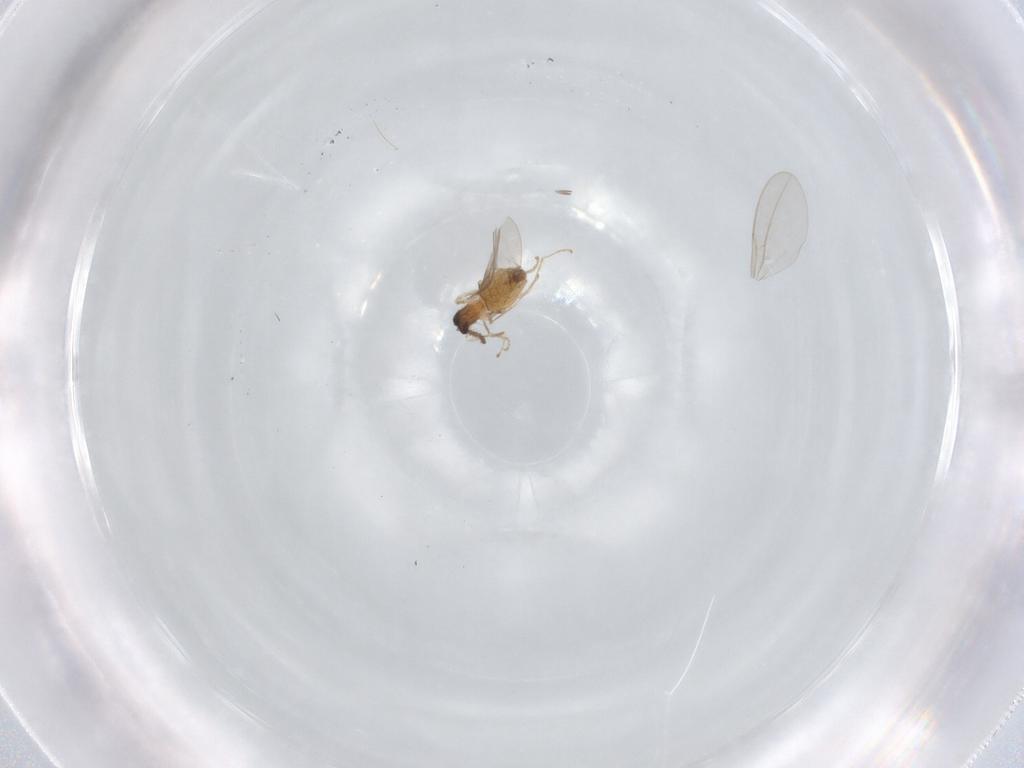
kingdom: Animalia
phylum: Arthropoda
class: Insecta
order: Diptera
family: Cecidomyiidae
